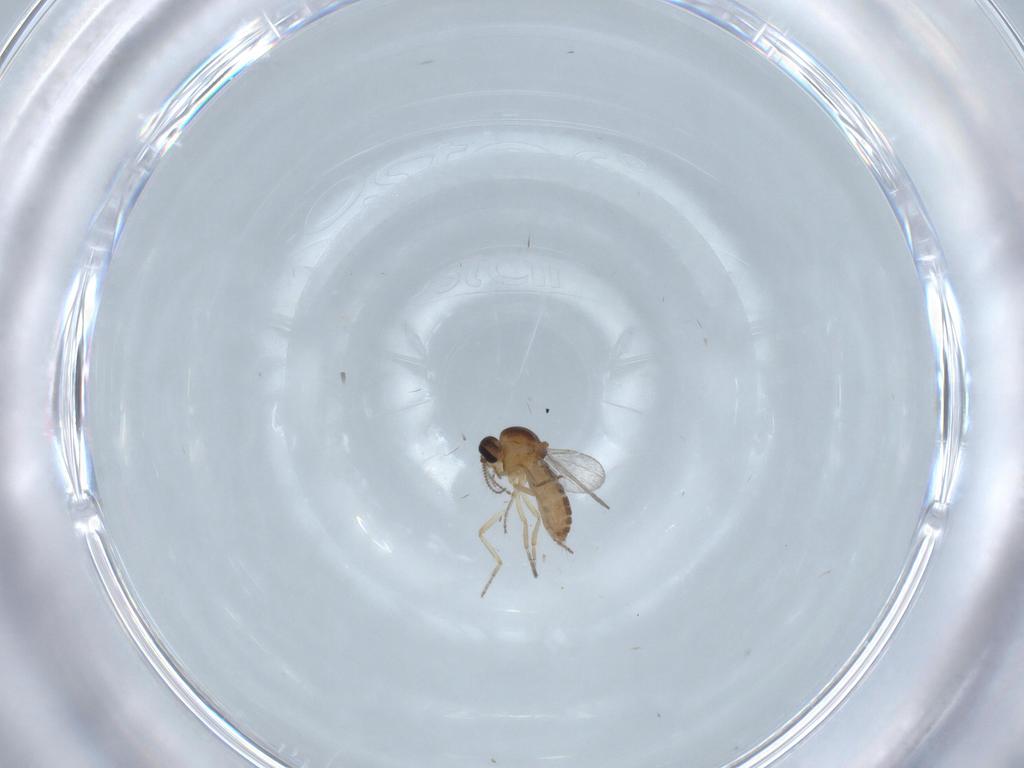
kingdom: Animalia
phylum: Arthropoda
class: Insecta
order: Diptera
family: Ceratopogonidae
